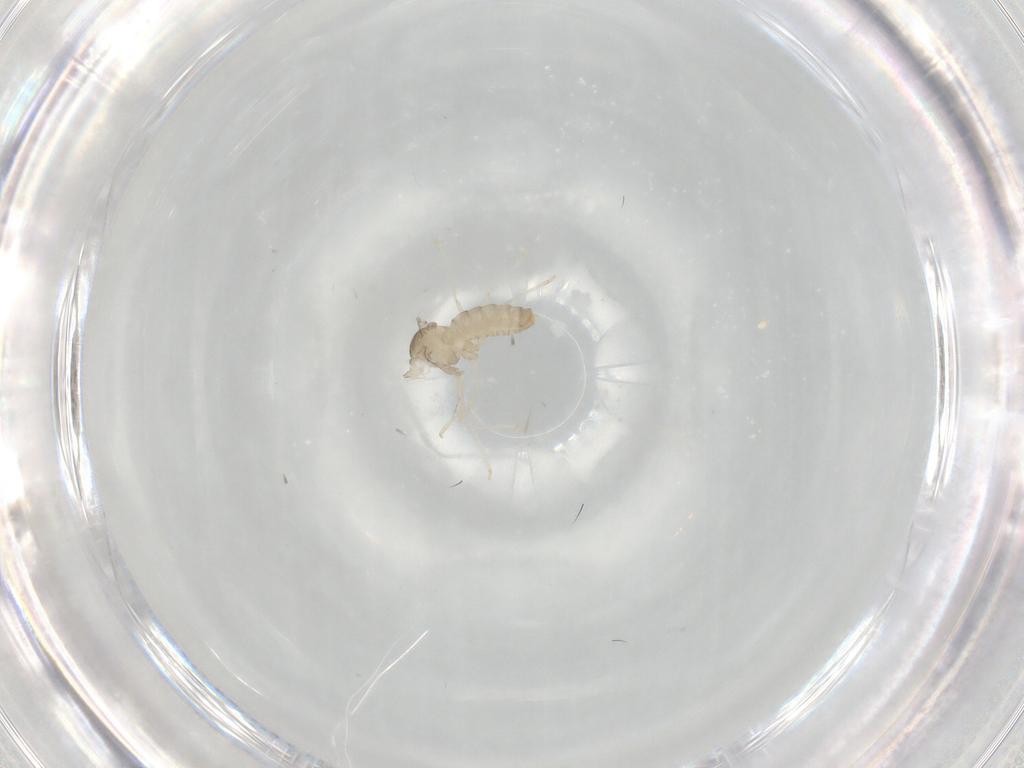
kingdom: Animalia
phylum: Arthropoda
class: Insecta
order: Diptera
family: Cecidomyiidae
